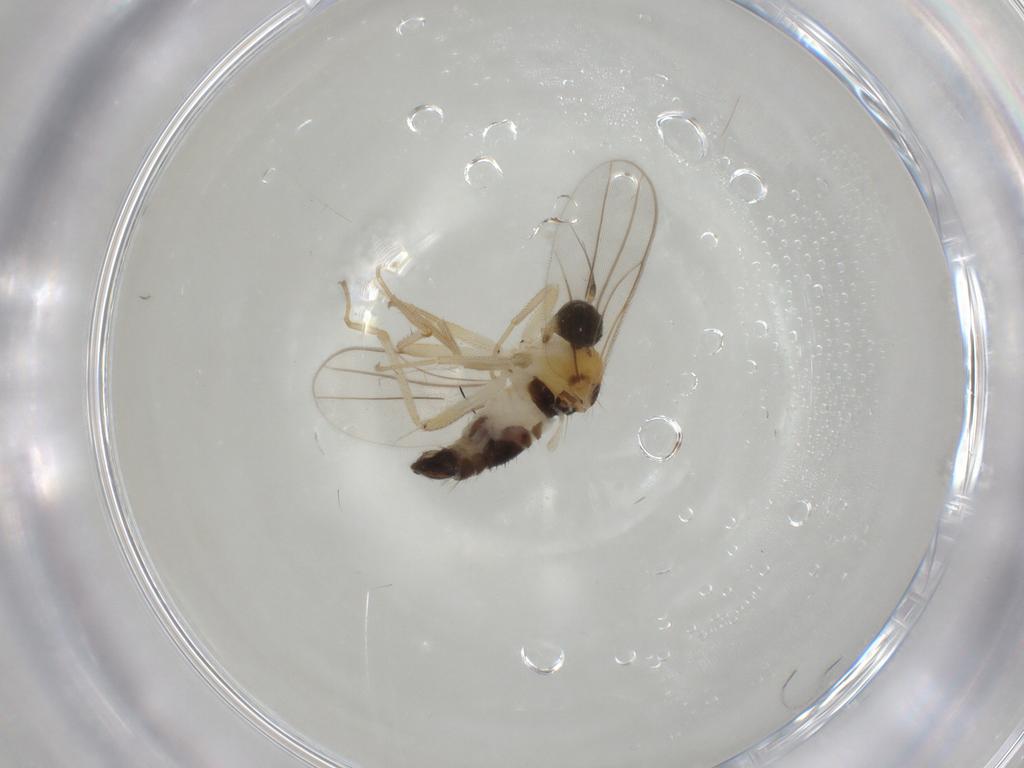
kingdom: Animalia
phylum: Arthropoda
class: Insecta
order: Diptera
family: Hybotidae
